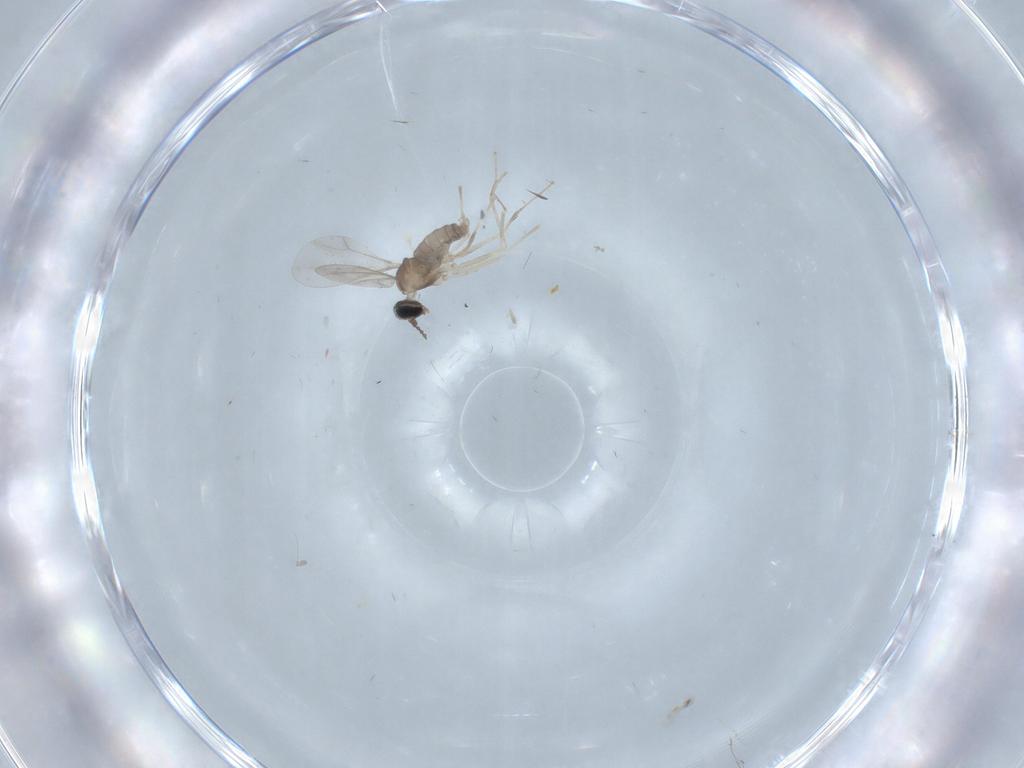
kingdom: Animalia
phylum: Arthropoda
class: Insecta
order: Diptera
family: Cecidomyiidae
